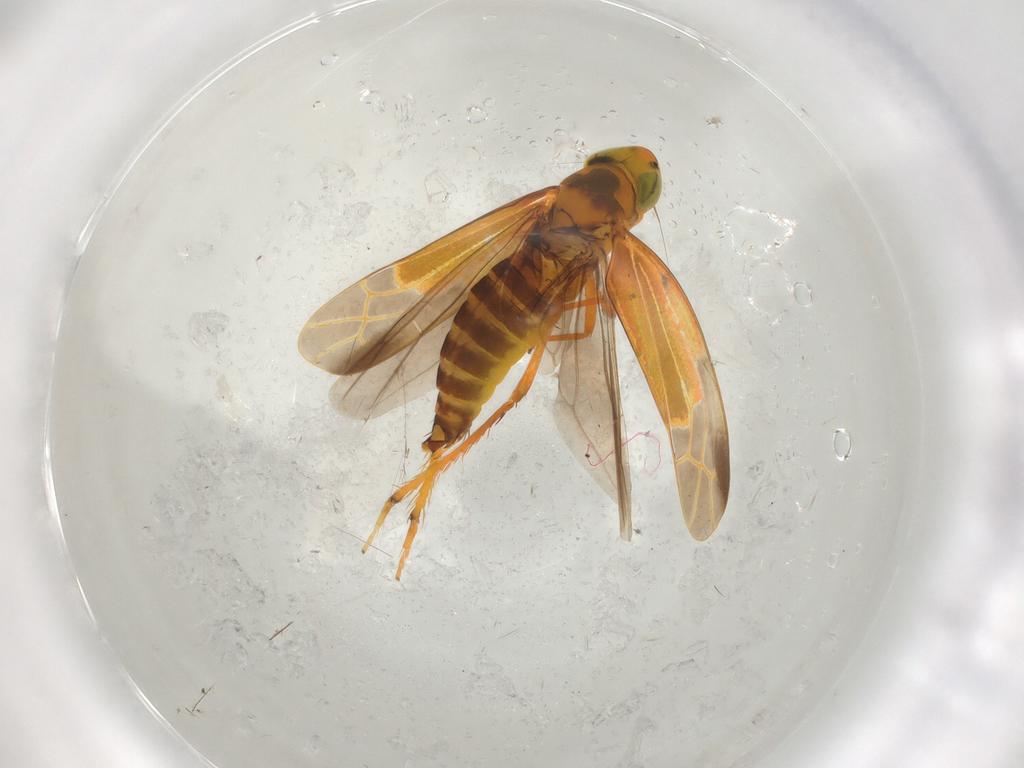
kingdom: Animalia
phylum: Arthropoda
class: Insecta
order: Hemiptera
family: Cicadellidae
